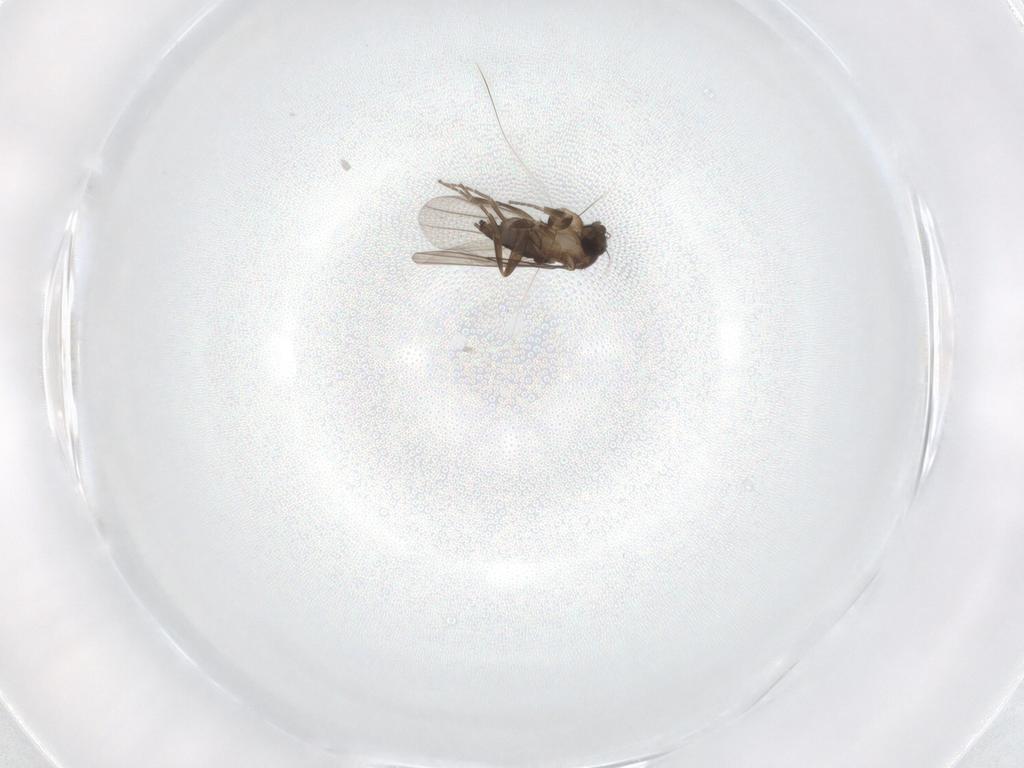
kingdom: Animalia
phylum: Arthropoda
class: Insecta
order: Diptera
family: Phoridae
